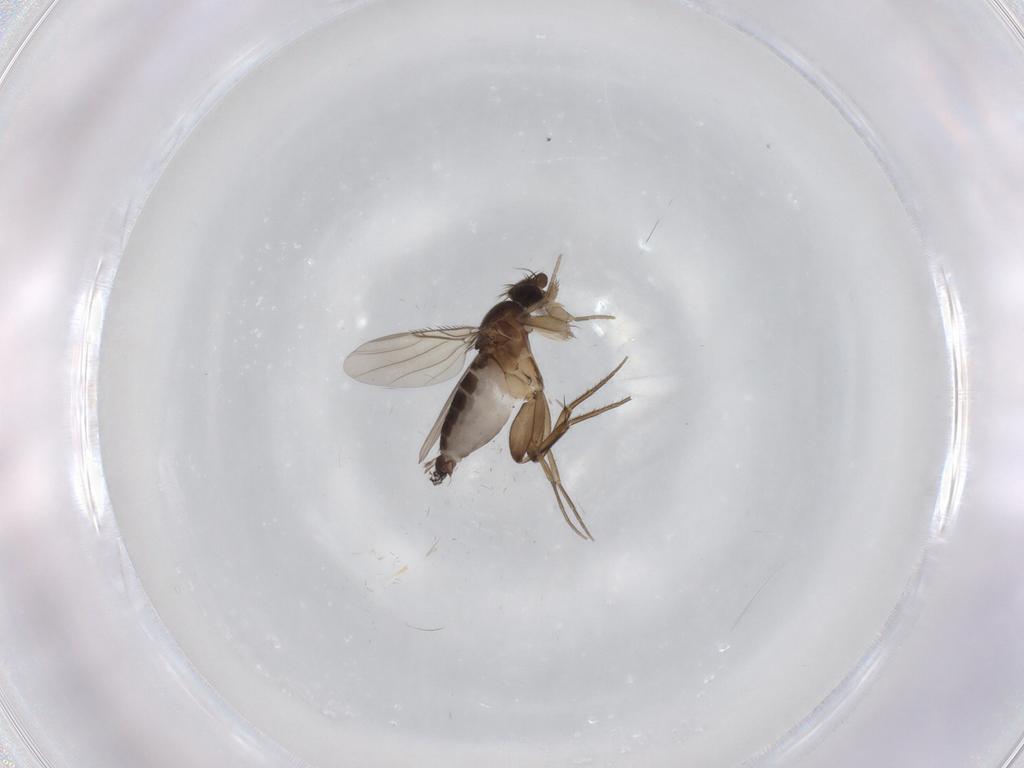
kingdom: Animalia
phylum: Arthropoda
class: Insecta
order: Diptera
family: Phoridae
